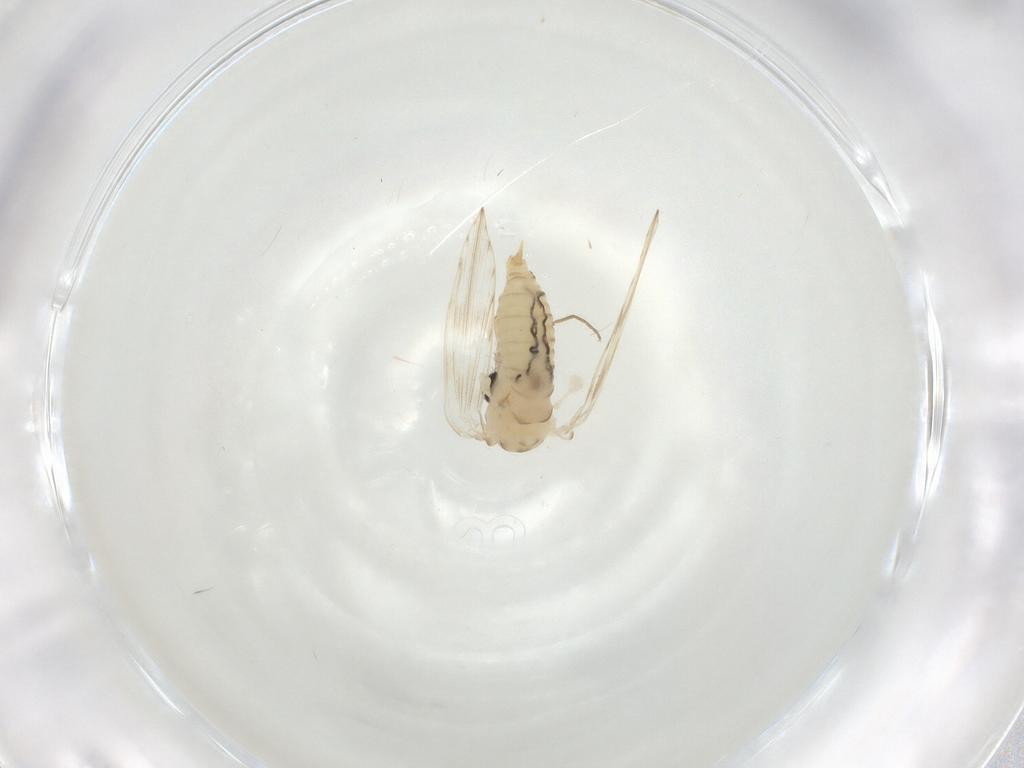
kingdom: Animalia
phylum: Arthropoda
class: Insecta
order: Diptera
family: Psychodidae
